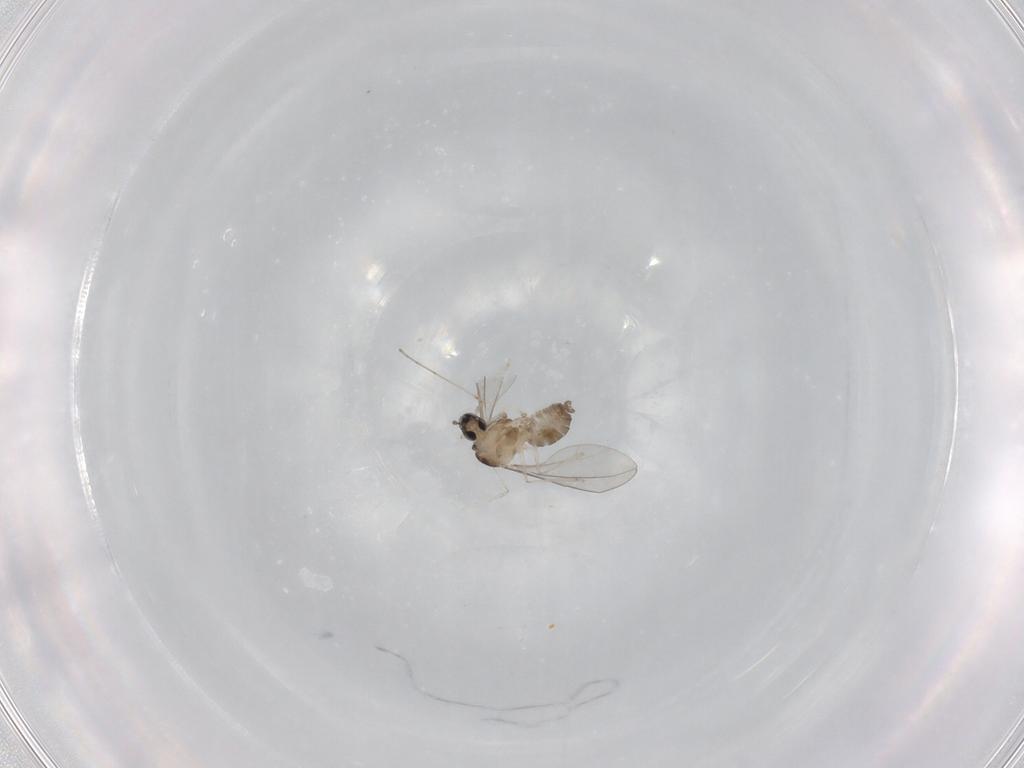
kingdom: Animalia
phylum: Arthropoda
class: Insecta
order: Diptera
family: Cecidomyiidae
